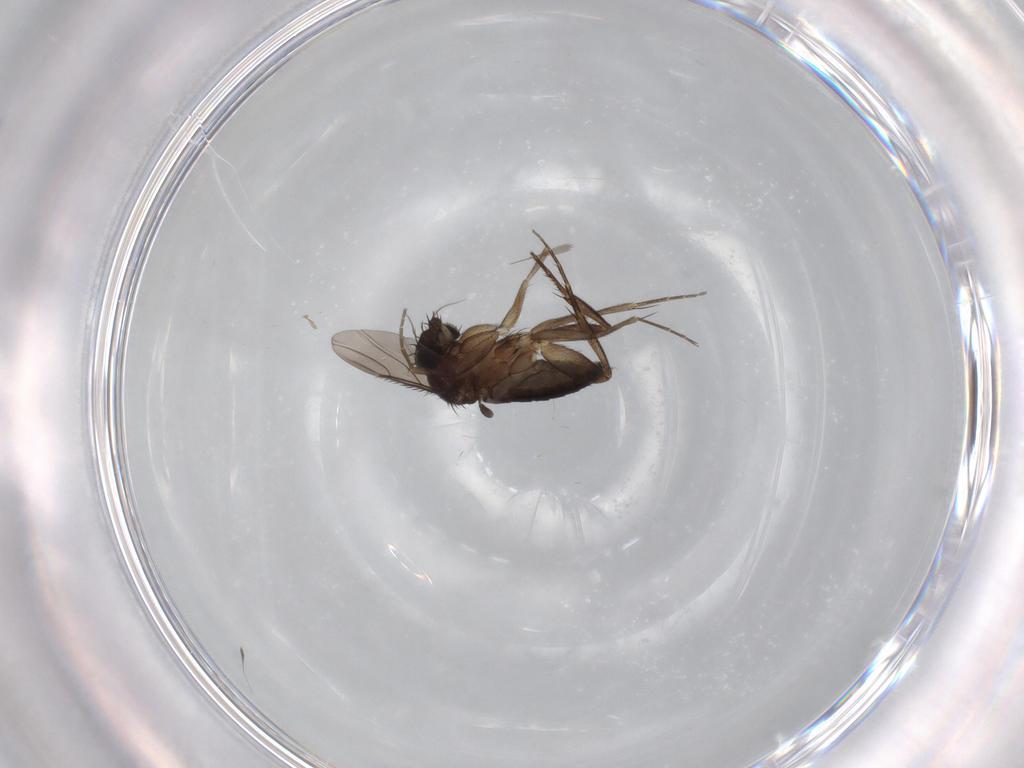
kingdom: Animalia
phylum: Arthropoda
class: Insecta
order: Diptera
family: Phoridae
